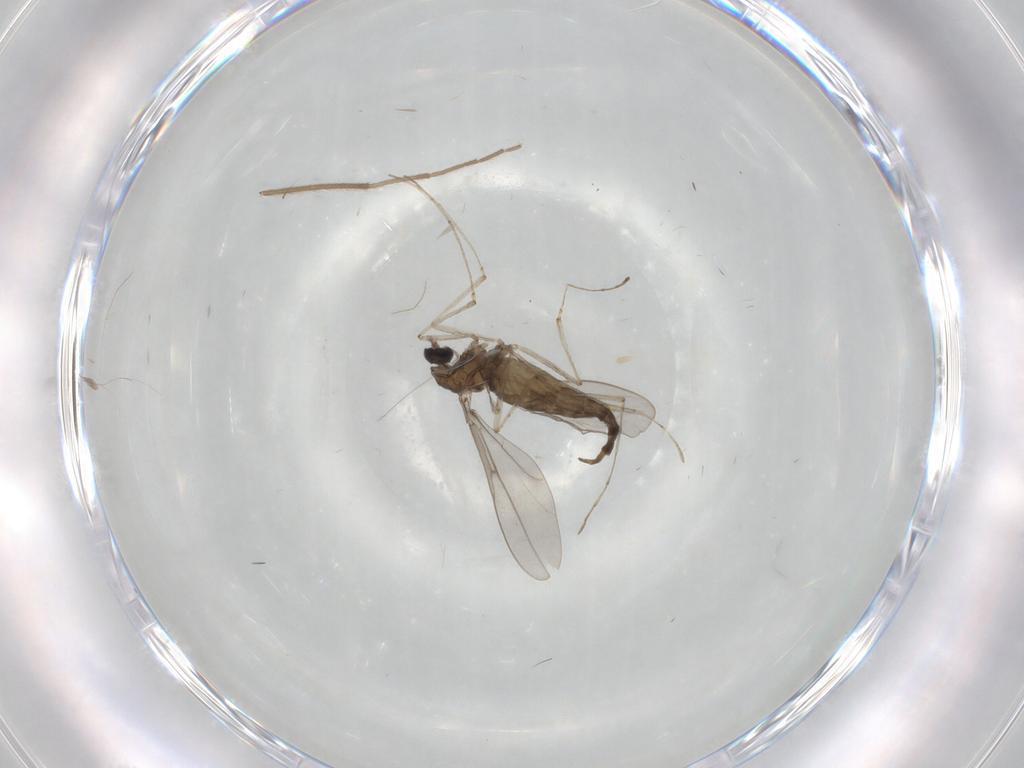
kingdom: Animalia
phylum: Arthropoda
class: Insecta
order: Diptera
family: Cecidomyiidae
